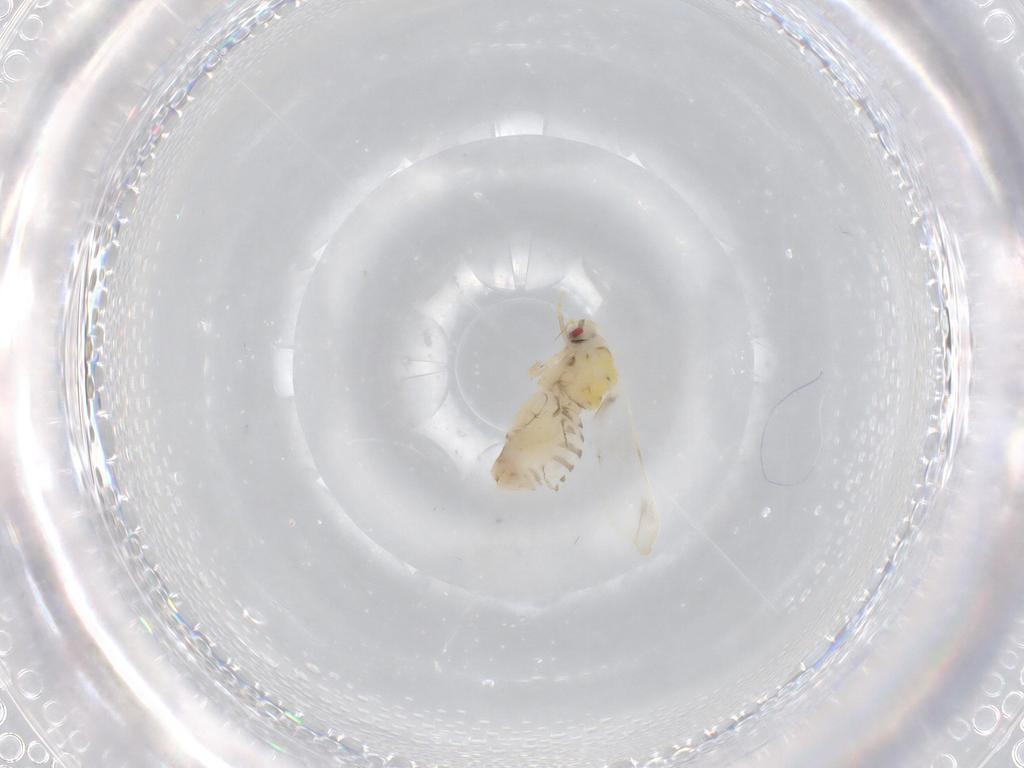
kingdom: Animalia
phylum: Arthropoda
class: Insecta
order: Hemiptera
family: Aleyrodidae
